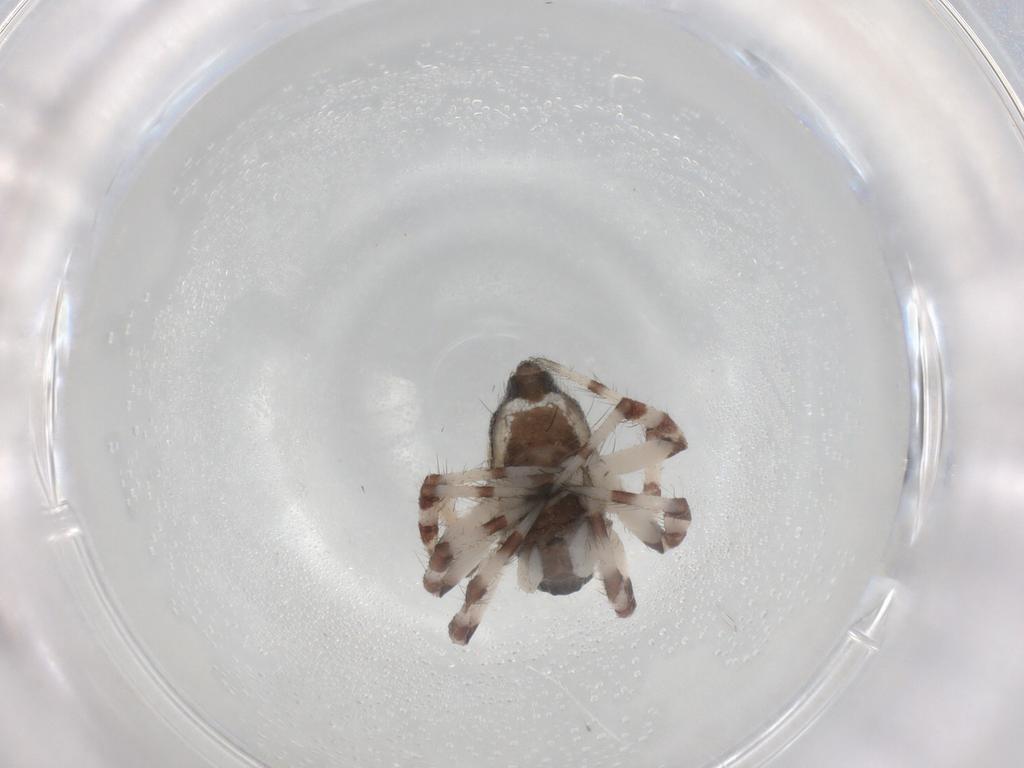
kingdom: Animalia
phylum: Arthropoda
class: Arachnida
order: Araneae
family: Theridiidae
